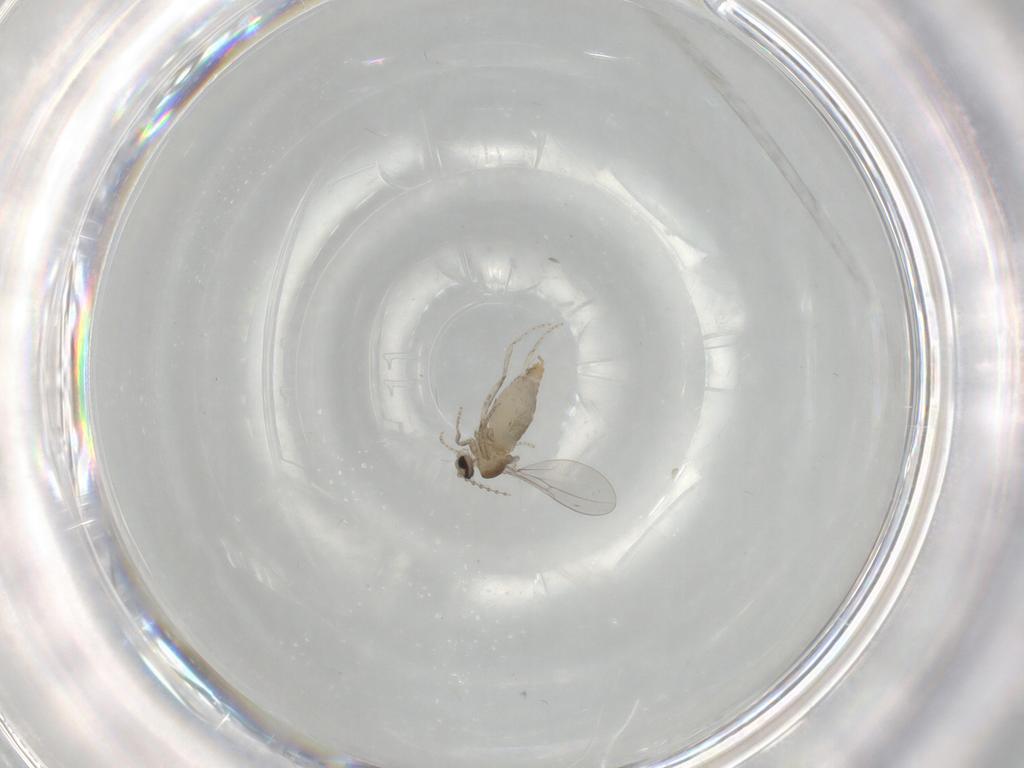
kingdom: Animalia
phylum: Arthropoda
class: Insecta
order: Diptera
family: Cecidomyiidae
